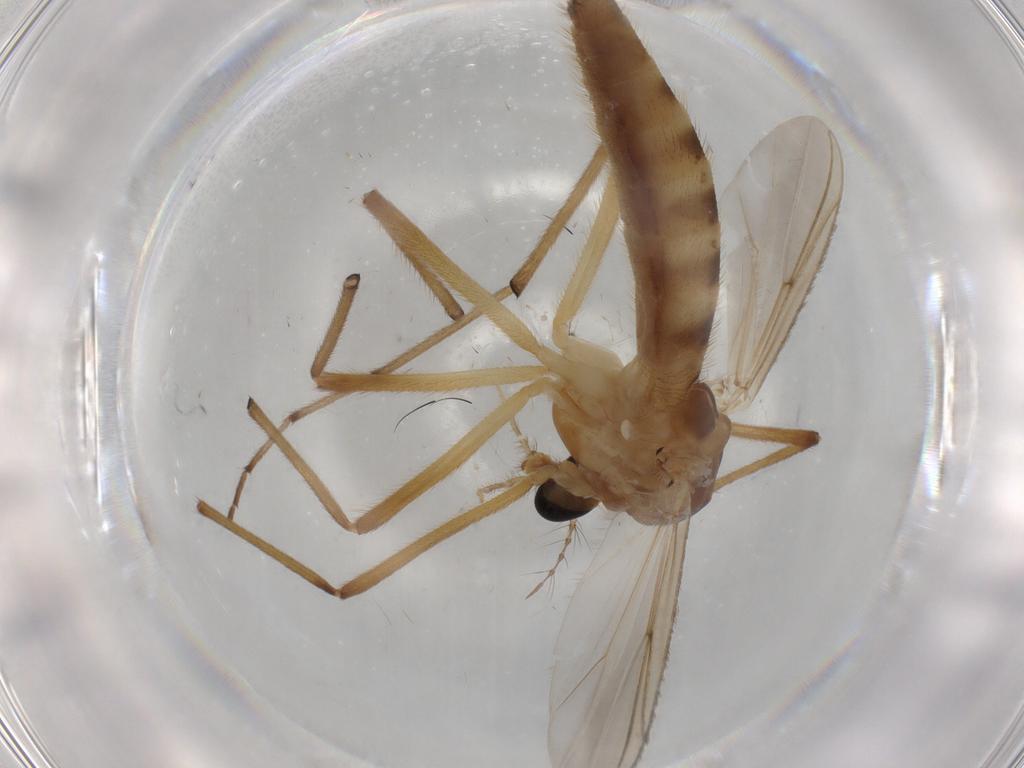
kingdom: Animalia
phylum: Arthropoda
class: Insecta
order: Diptera
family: Chironomidae
